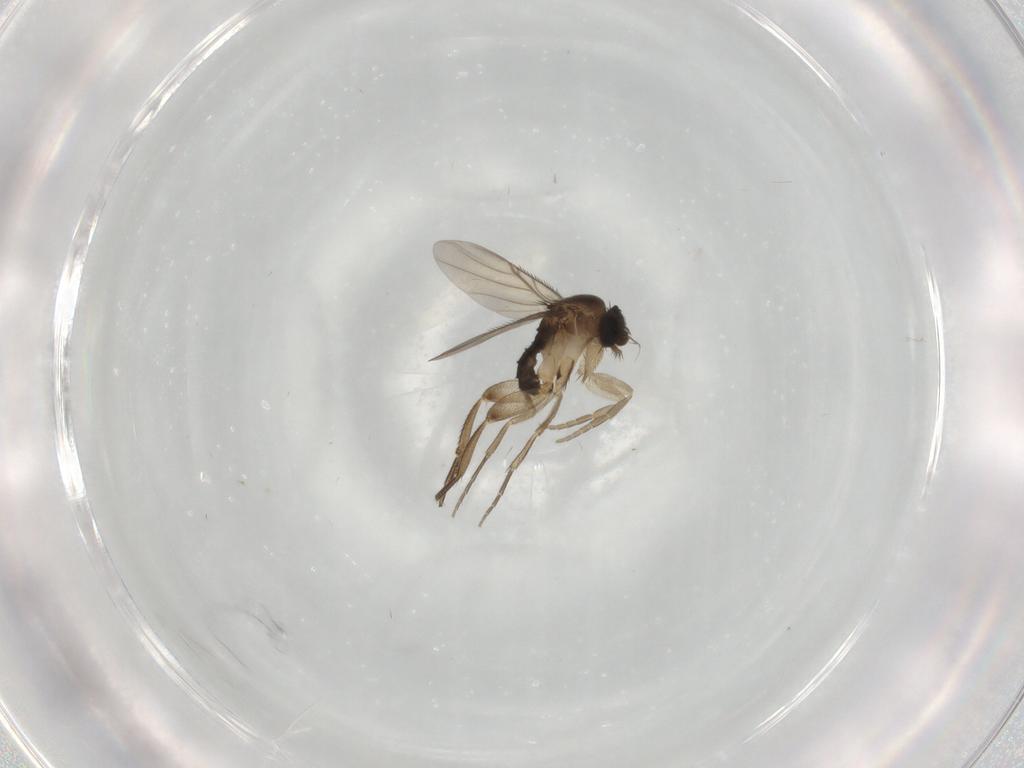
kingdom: Animalia
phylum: Arthropoda
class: Insecta
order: Diptera
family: Phoridae
